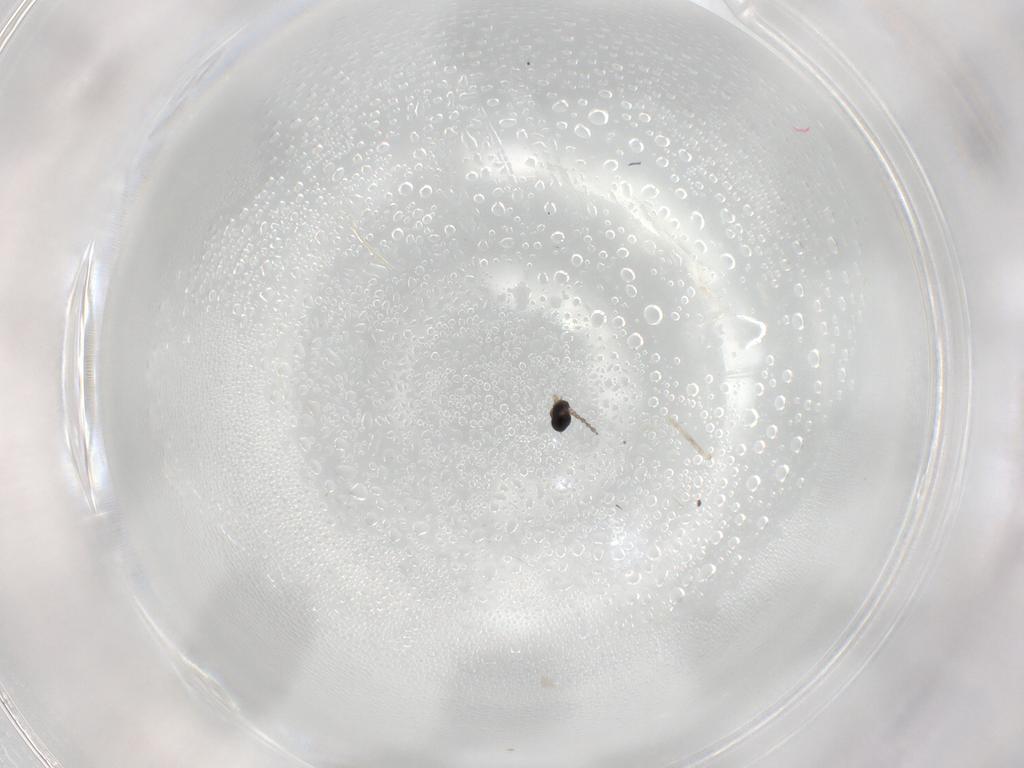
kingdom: Animalia
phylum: Arthropoda
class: Insecta
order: Diptera
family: Cecidomyiidae
